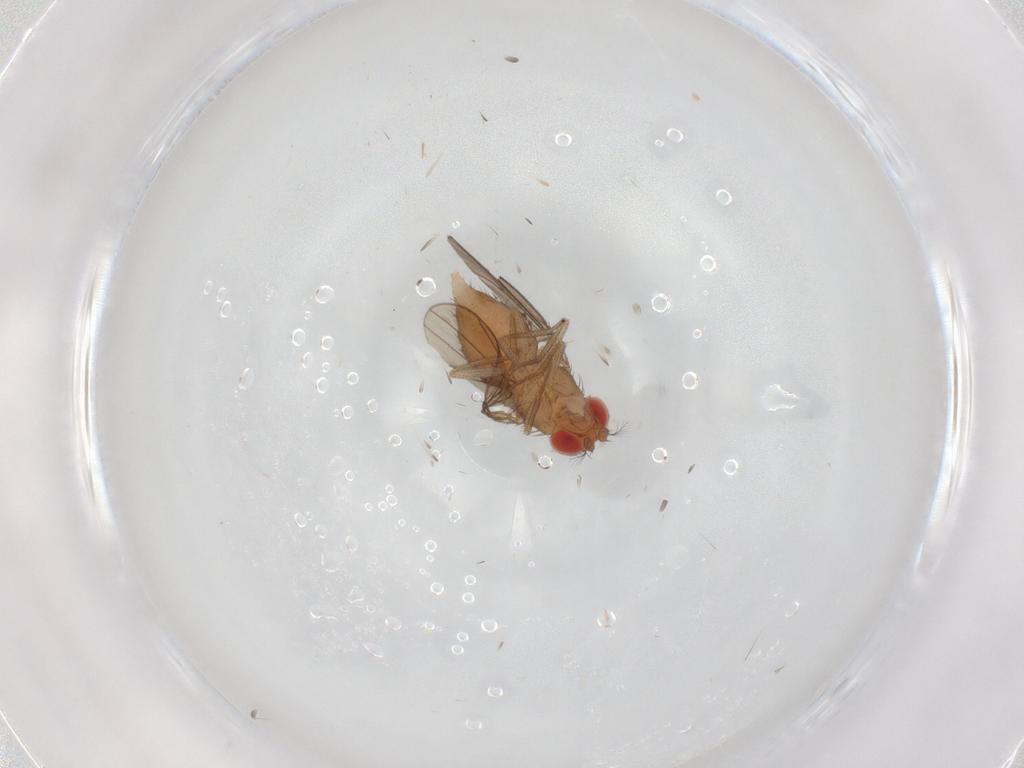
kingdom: Animalia
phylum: Arthropoda
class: Insecta
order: Diptera
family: Drosophilidae
